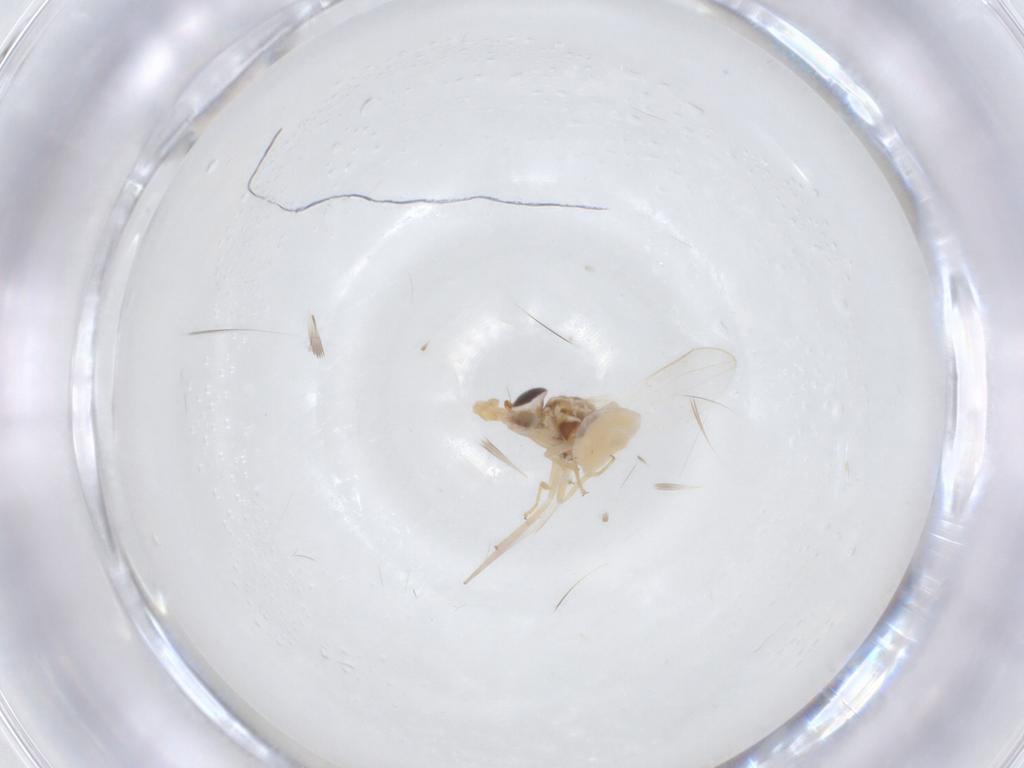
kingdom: Animalia
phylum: Arthropoda
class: Insecta
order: Diptera
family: Chloropidae
